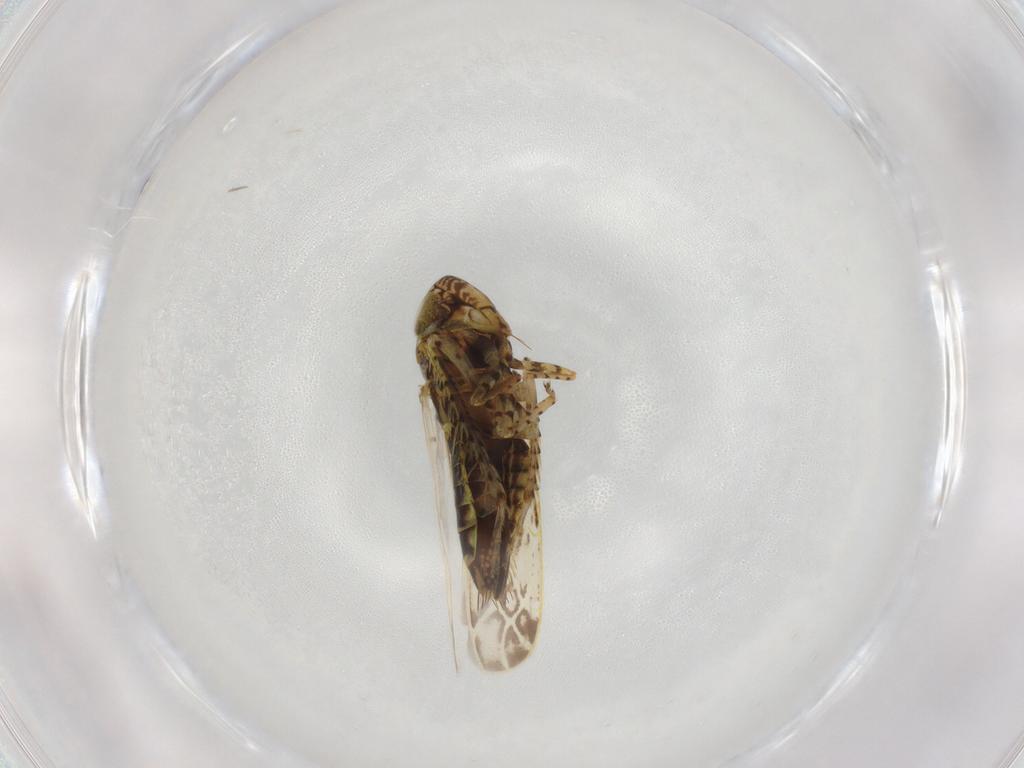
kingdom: Animalia
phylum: Arthropoda
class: Insecta
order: Hemiptera
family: Cicadellidae
